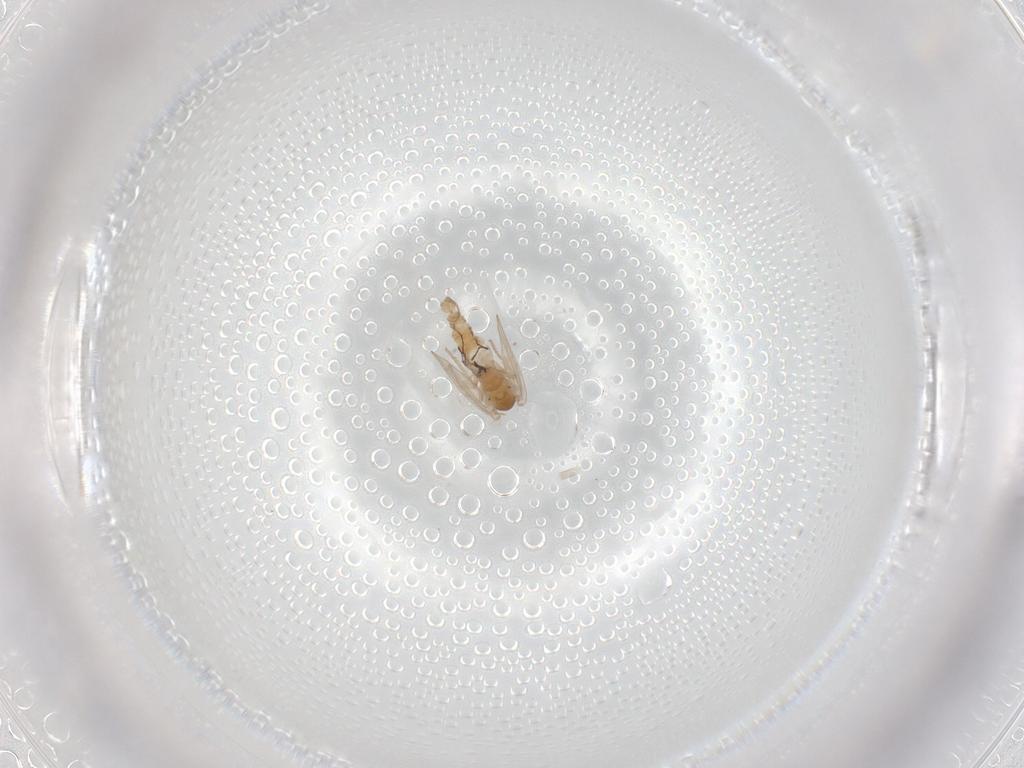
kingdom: Animalia
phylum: Arthropoda
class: Insecta
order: Diptera
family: Psychodidae
